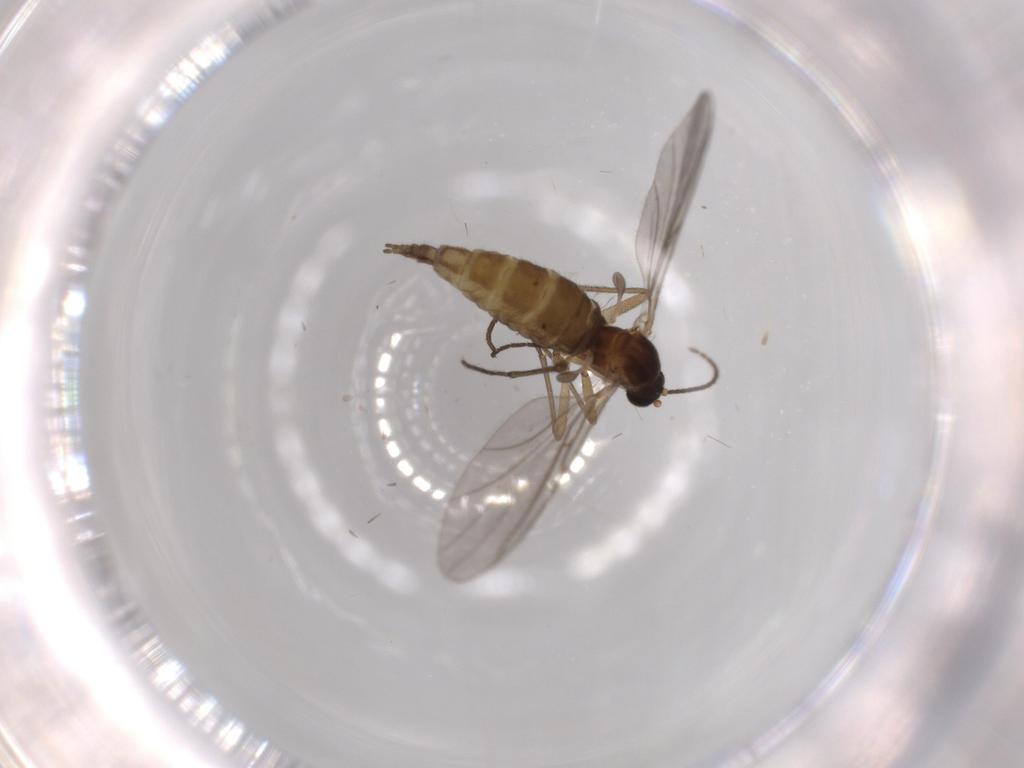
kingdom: Animalia
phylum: Arthropoda
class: Insecta
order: Diptera
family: Sciaridae
